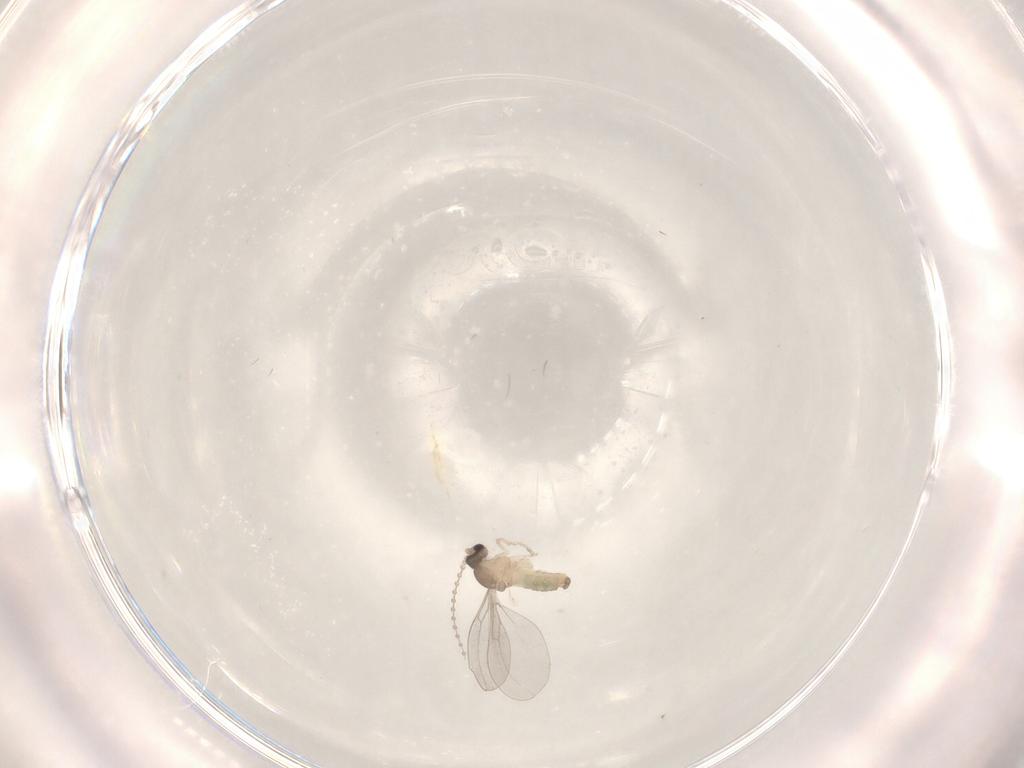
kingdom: Animalia
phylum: Arthropoda
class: Insecta
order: Diptera
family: Cecidomyiidae
